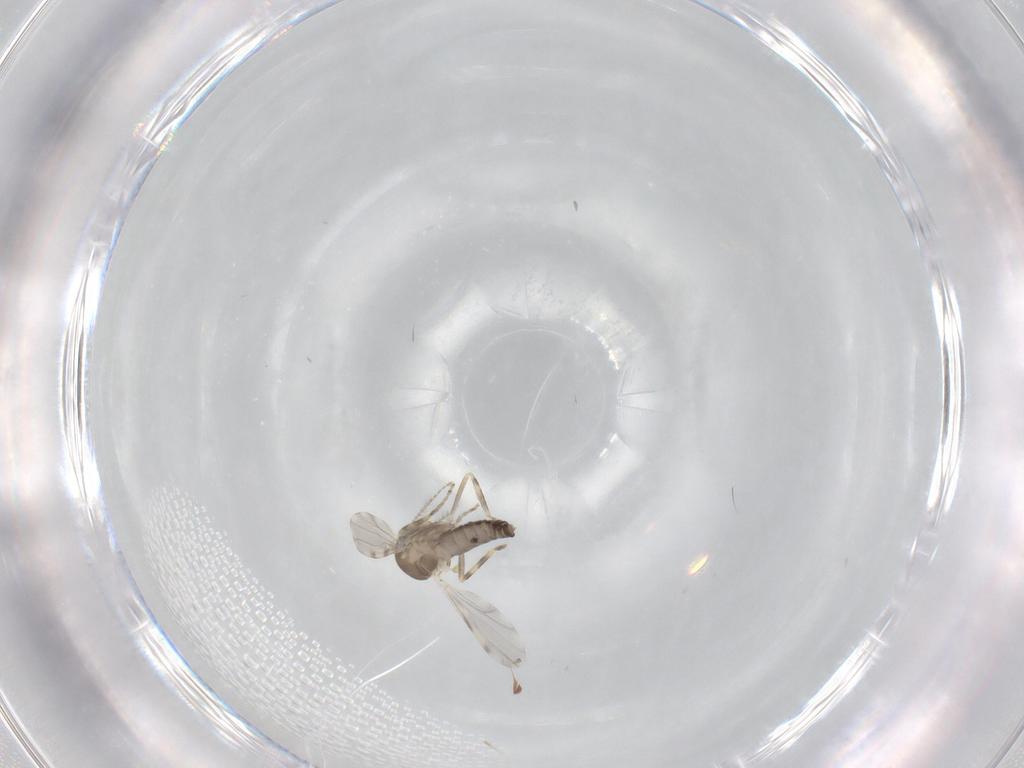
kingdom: Animalia
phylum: Arthropoda
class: Insecta
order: Diptera
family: Ceratopogonidae
